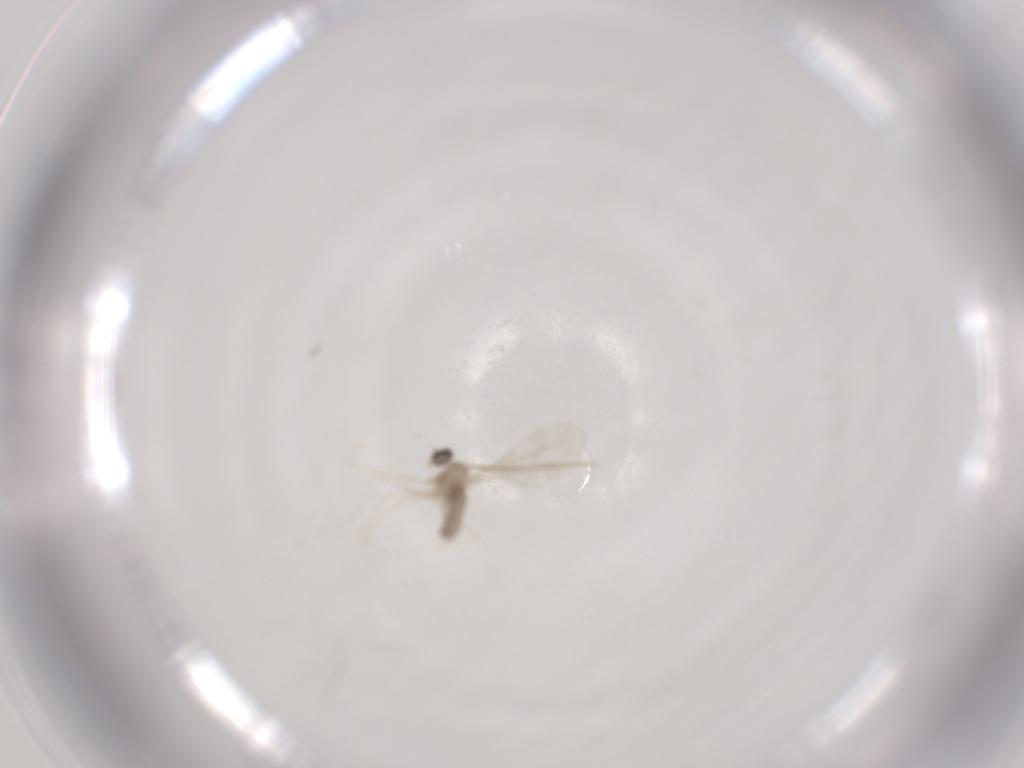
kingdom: Animalia
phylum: Arthropoda
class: Insecta
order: Diptera
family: Cecidomyiidae
